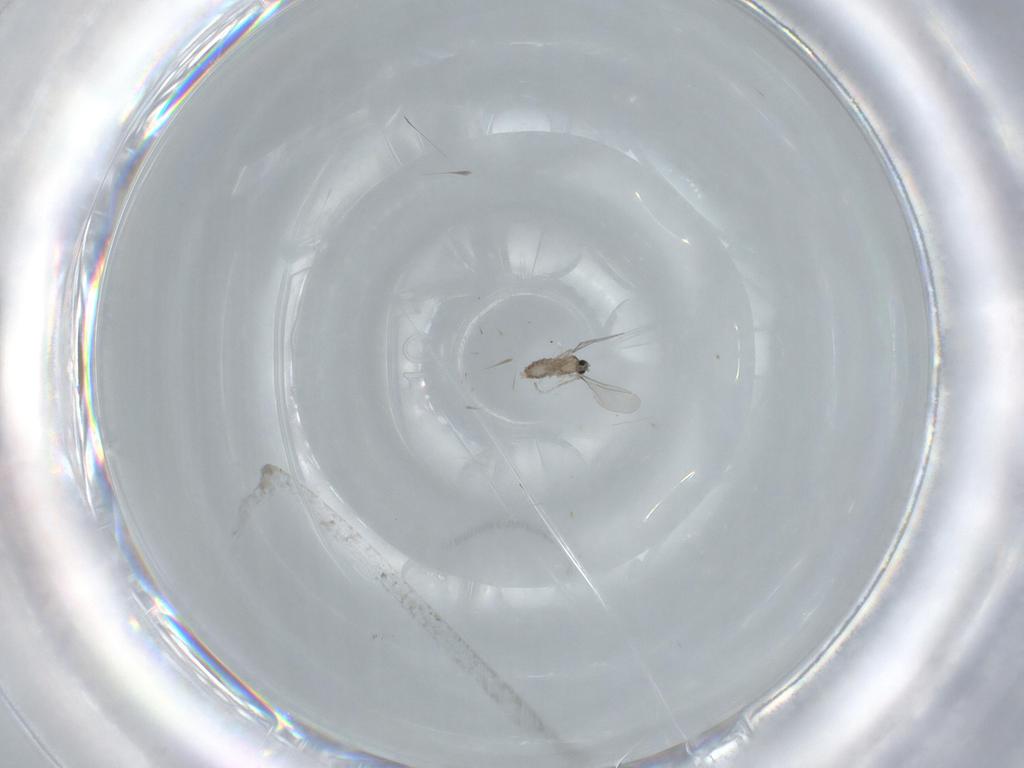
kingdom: Animalia
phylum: Arthropoda
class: Insecta
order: Diptera
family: Cecidomyiidae
